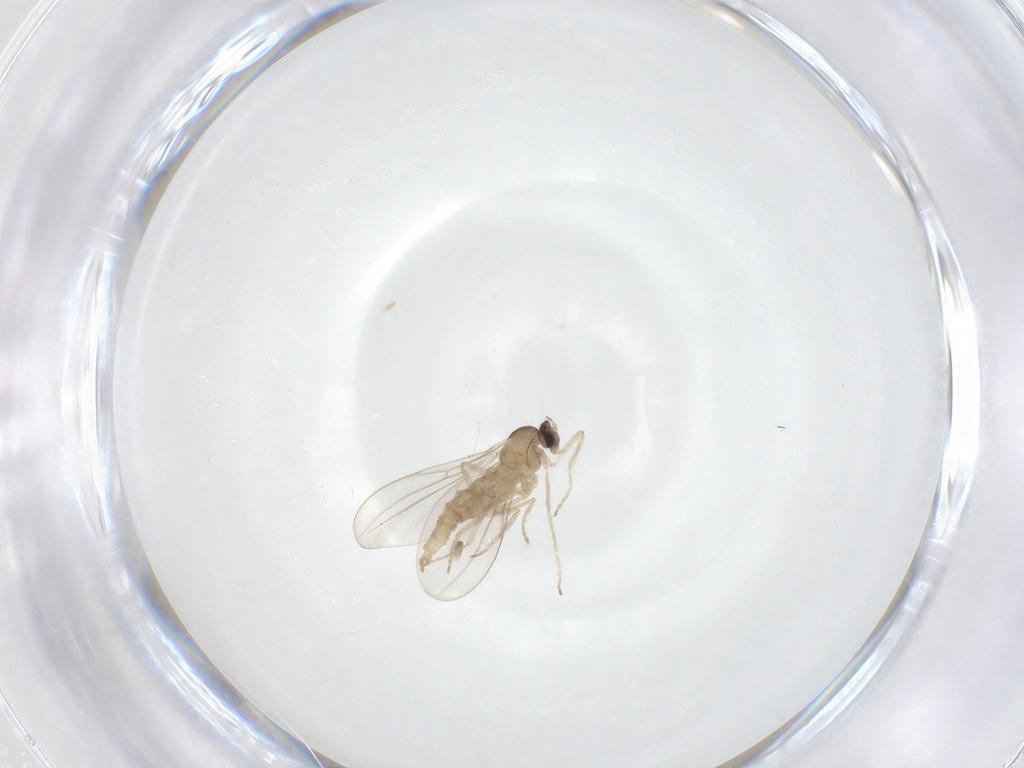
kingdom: Animalia
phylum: Arthropoda
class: Insecta
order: Diptera
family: Cecidomyiidae
